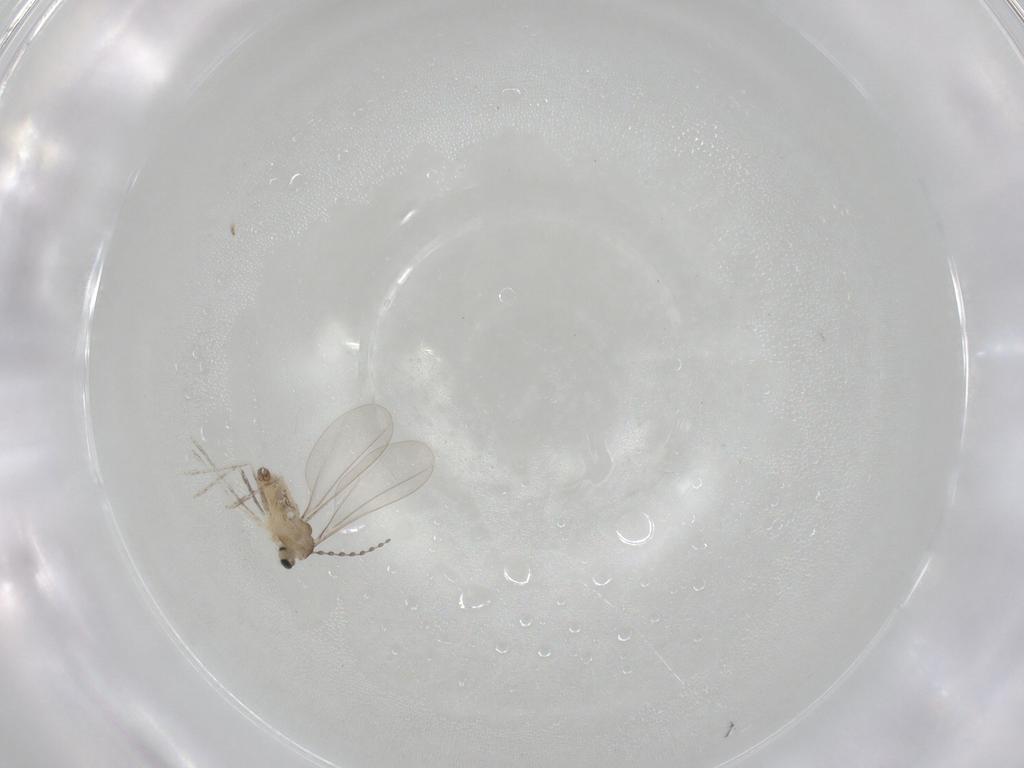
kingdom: Animalia
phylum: Arthropoda
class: Insecta
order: Diptera
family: Cecidomyiidae
